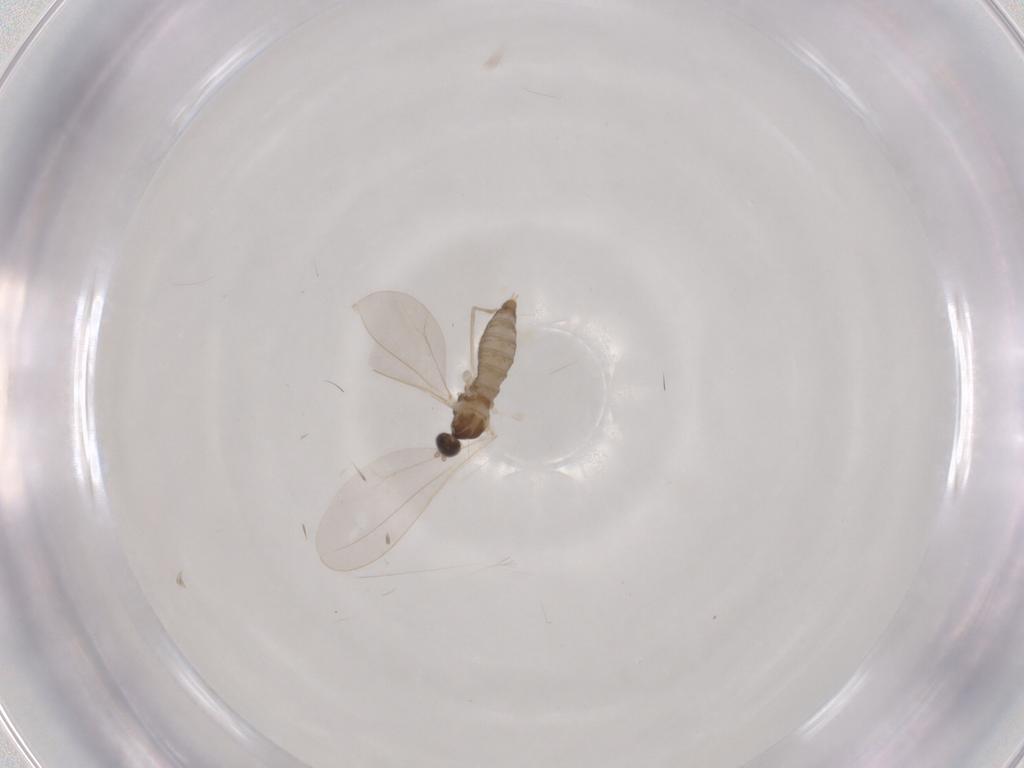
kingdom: Animalia
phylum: Arthropoda
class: Insecta
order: Diptera
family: Cecidomyiidae
